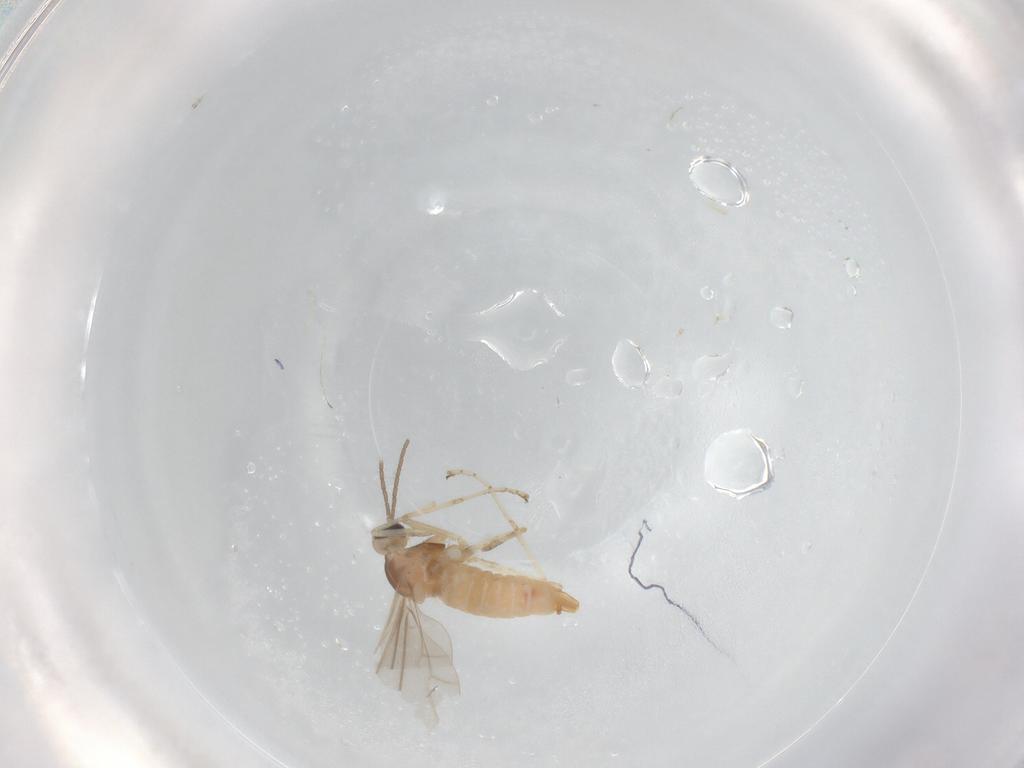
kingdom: Animalia
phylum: Arthropoda
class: Insecta
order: Diptera
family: Cecidomyiidae
